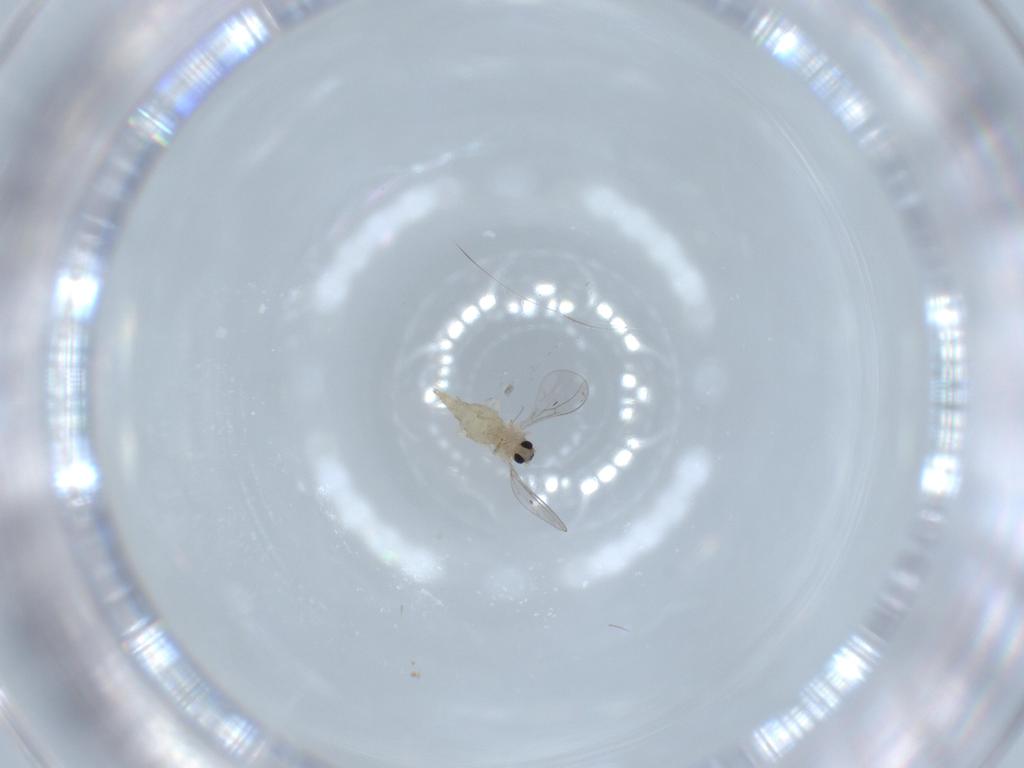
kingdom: Animalia
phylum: Arthropoda
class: Insecta
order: Diptera
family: Cecidomyiidae
